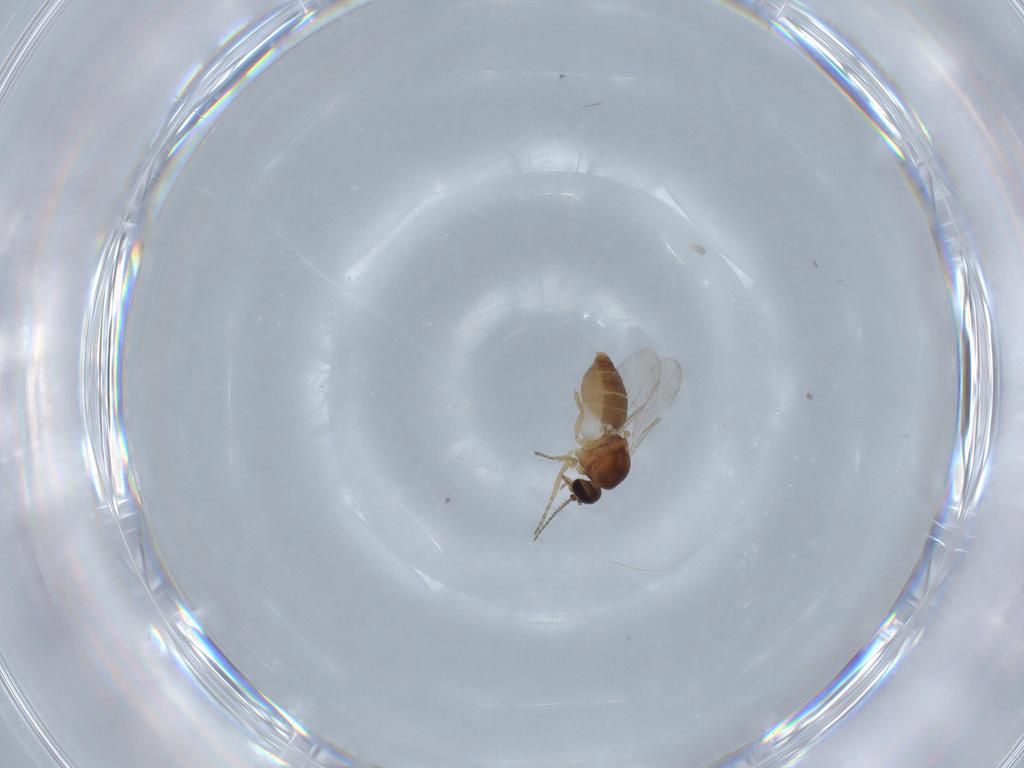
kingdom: Animalia
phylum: Arthropoda
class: Insecta
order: Diptera
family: Ceratopogonidae
